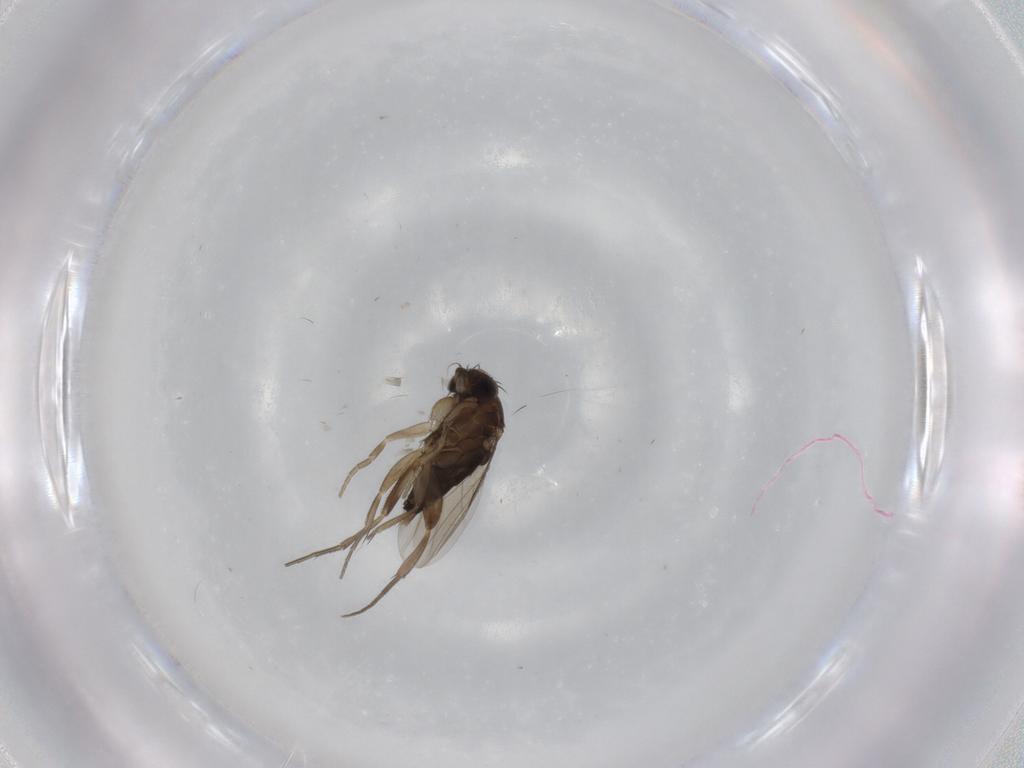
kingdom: Animalia
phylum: Arthropoda
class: Insecta
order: Diptera
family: Phoridae
